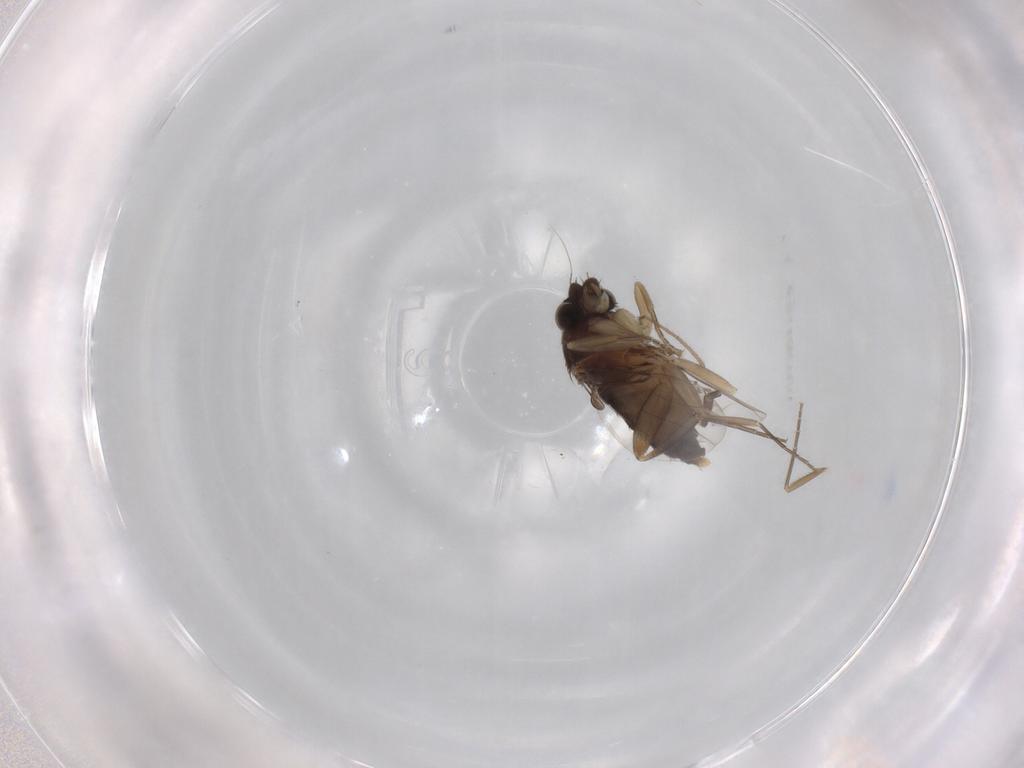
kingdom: Animalia
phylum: Arthropoda
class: Insecta
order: Diptera
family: Phoridae
